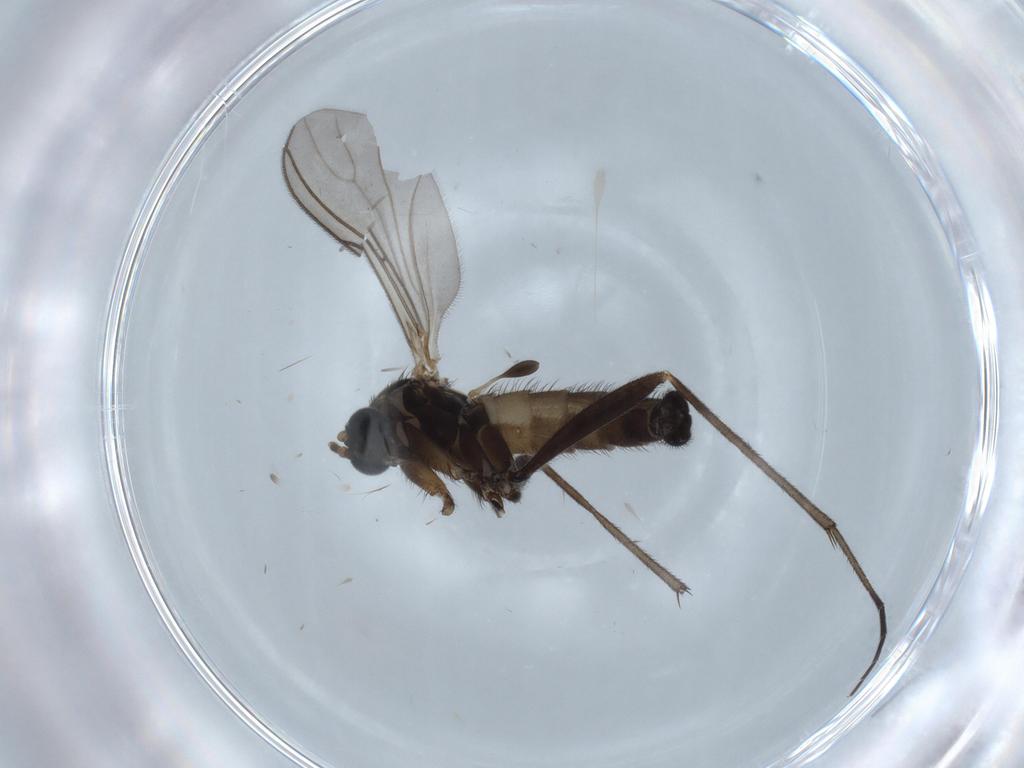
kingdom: Animalia
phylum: Arthropoda
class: Insecta
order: Diptera
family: Sciaridae
